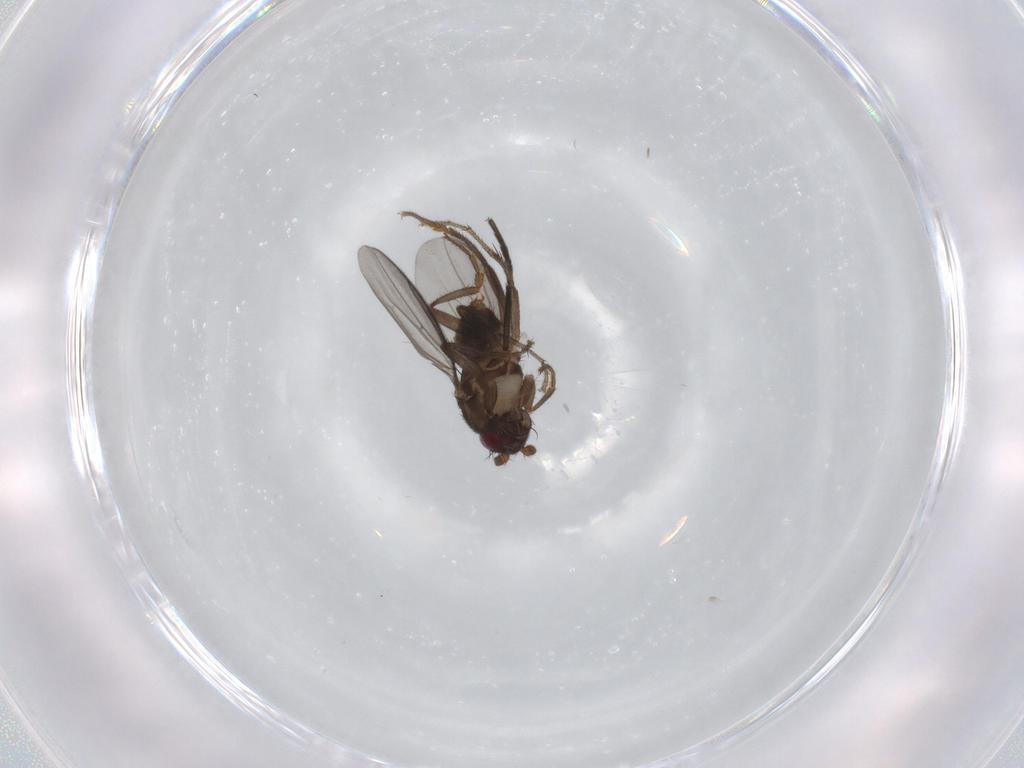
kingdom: Animalia
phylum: Arthropoda
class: Insecta
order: Diptera
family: Sphaeroceridae
